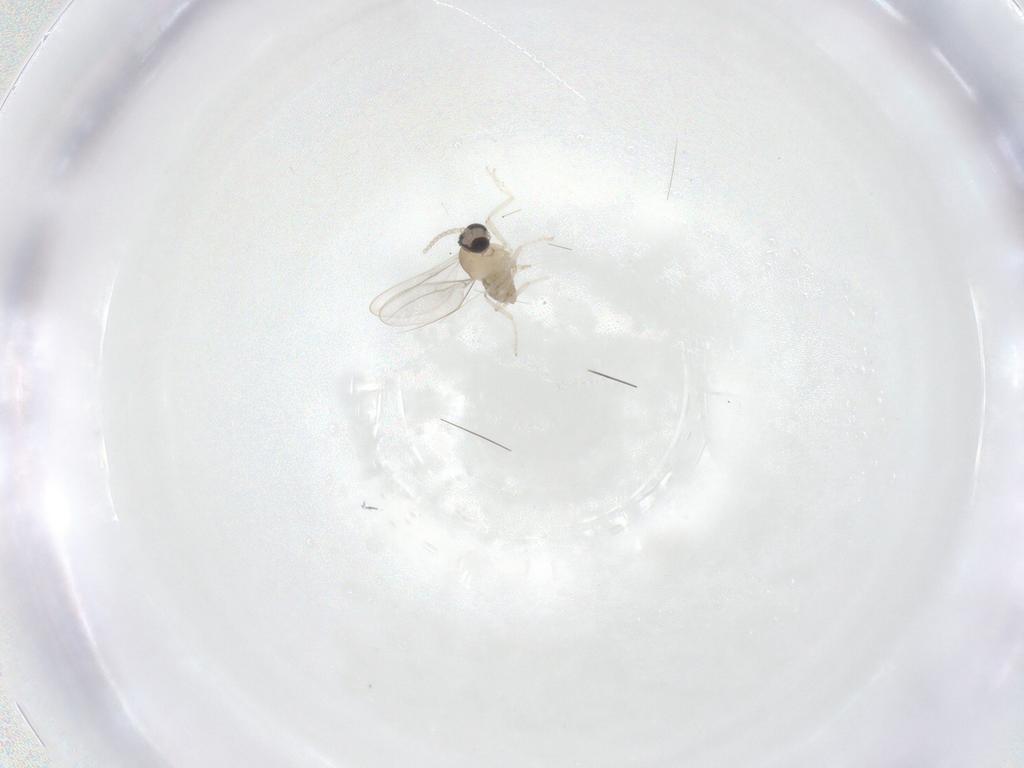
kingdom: Animalia
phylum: Arthropoda
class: Insecta
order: Diptera
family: Cecidomyiidae
